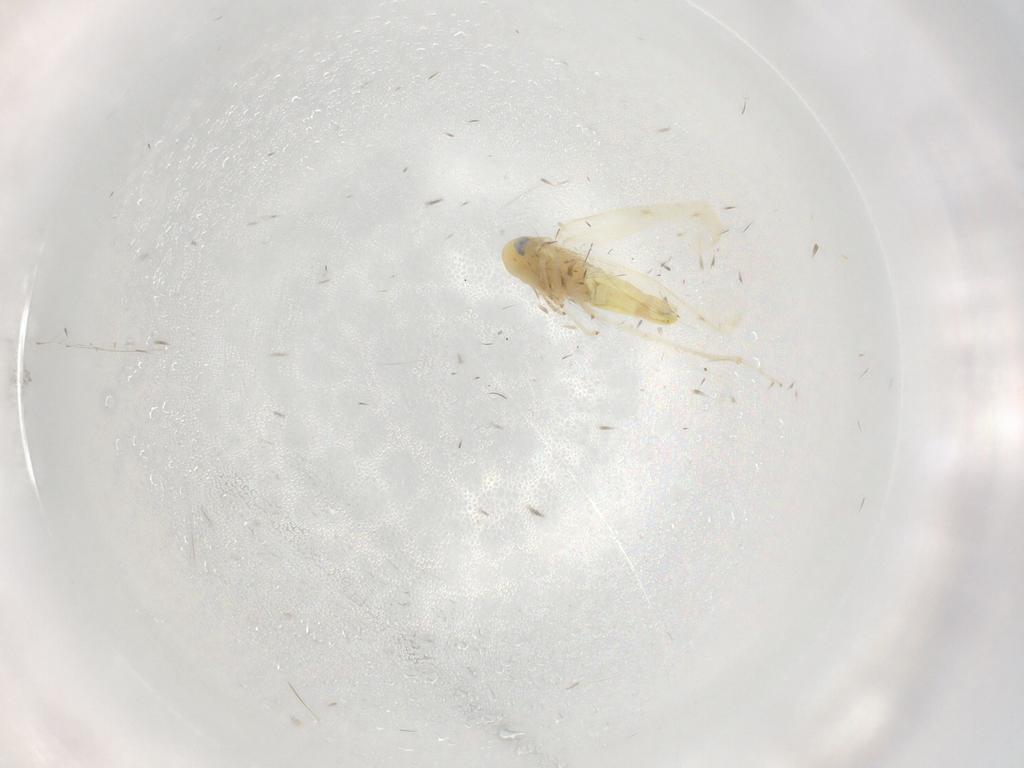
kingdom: Animalia
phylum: Arthropoda
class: Insecta
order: Hemiptera
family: Cicadellidae
